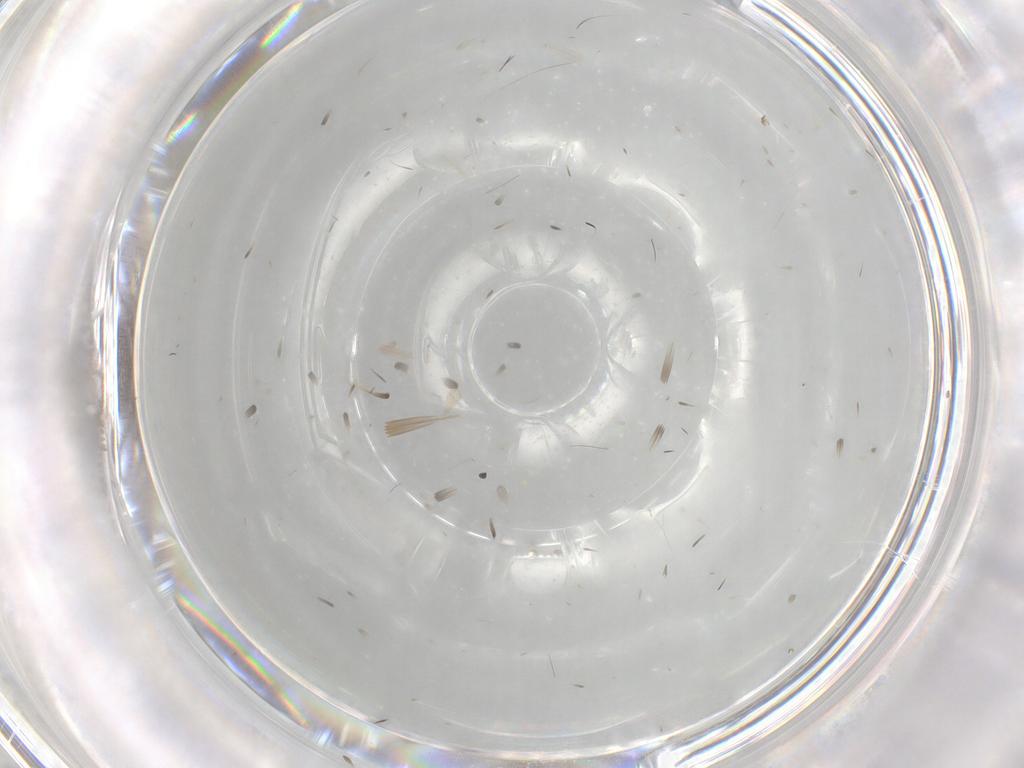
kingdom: Animalia
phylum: Arthropoda
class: Insecta
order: Diptera
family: Cecidomyiidae
